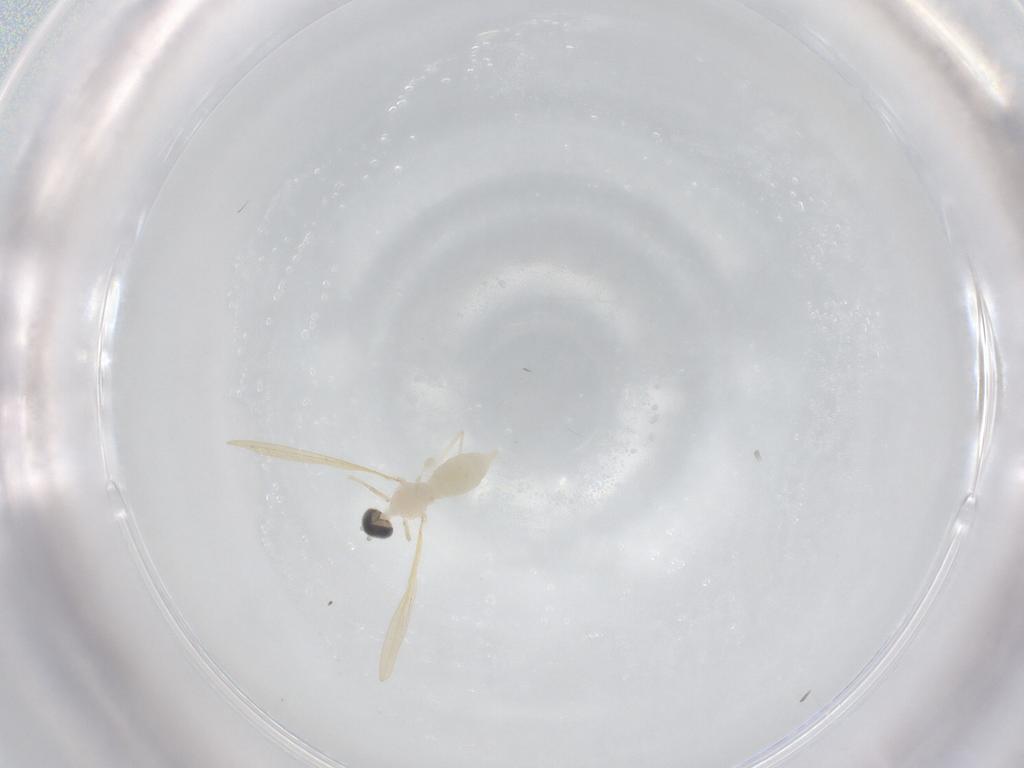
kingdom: Animalia
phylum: Arthropoda
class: Insecta
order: Diptera
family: Cecidomyiidae
